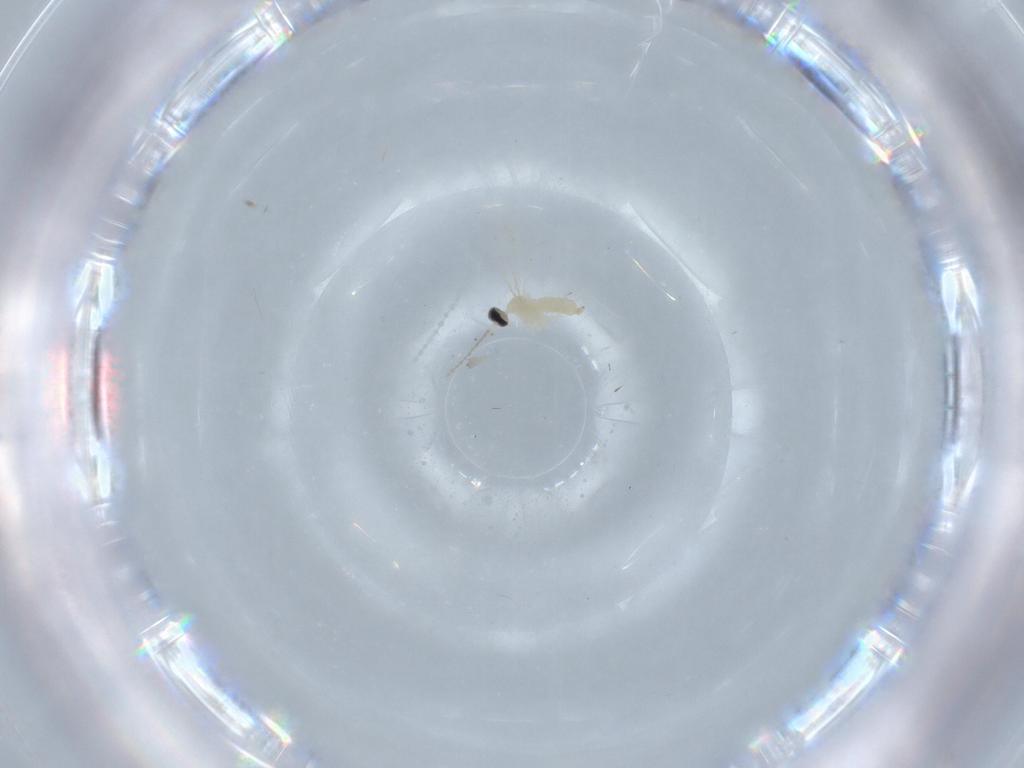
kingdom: Animalia
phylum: Arthropoda
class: Insecta
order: Diptera
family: Cecidomyiidae
